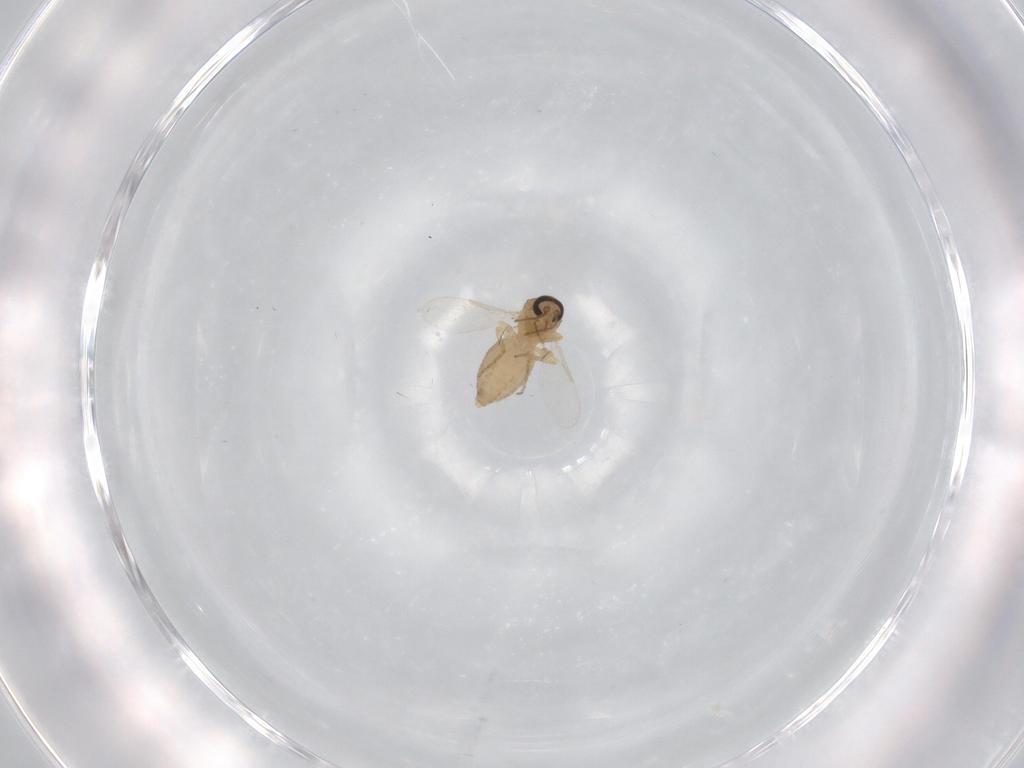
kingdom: Animalia
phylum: Arthropoda
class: Insecta
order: Diptera
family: Ceratopogonidae
